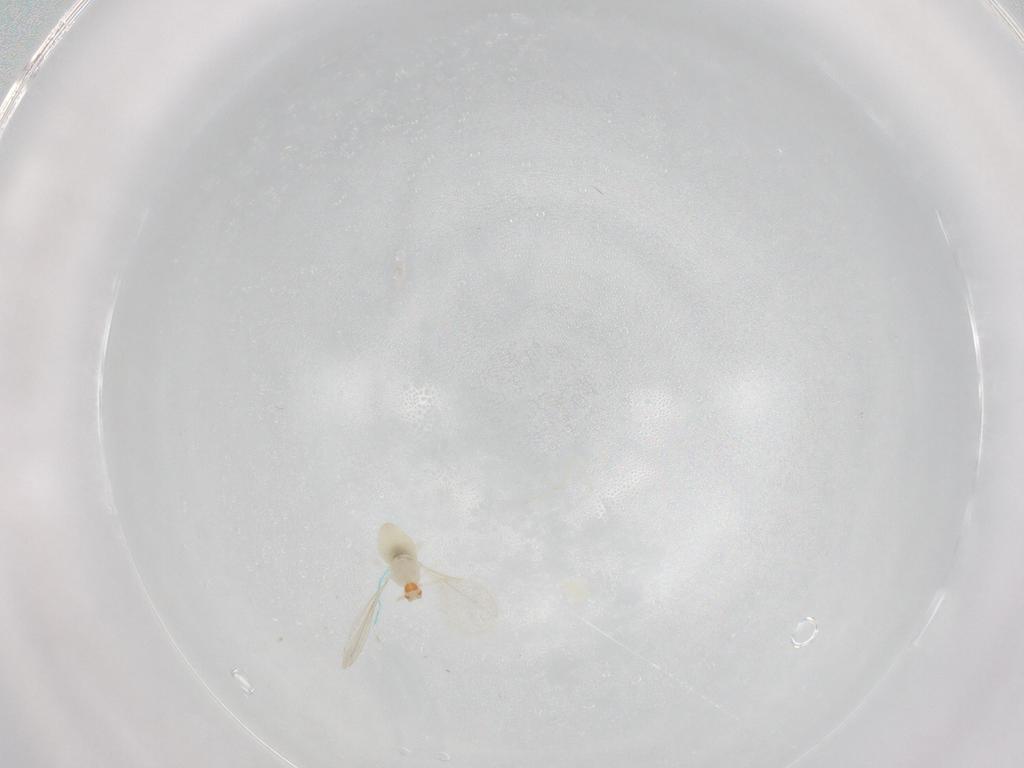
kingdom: Animalia
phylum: Arthropoda
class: Insecta
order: Diptera
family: Cecidomyiidae
